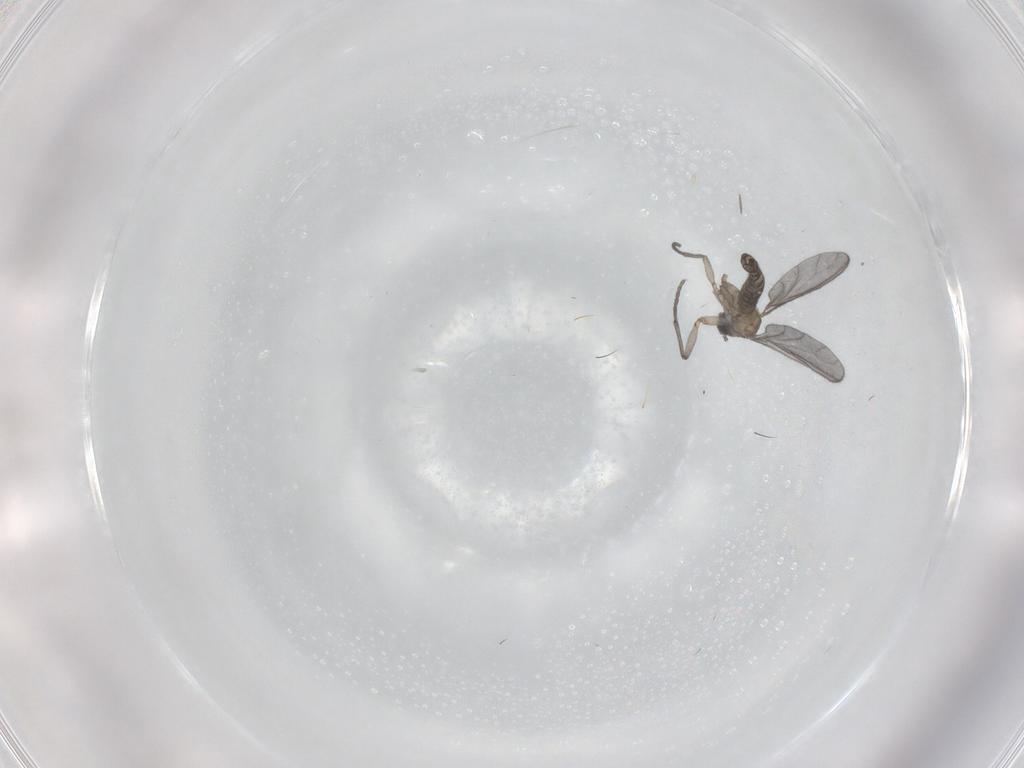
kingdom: Animalia
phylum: Arthropoda
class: Insecta
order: Diptera
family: Sciaridae
